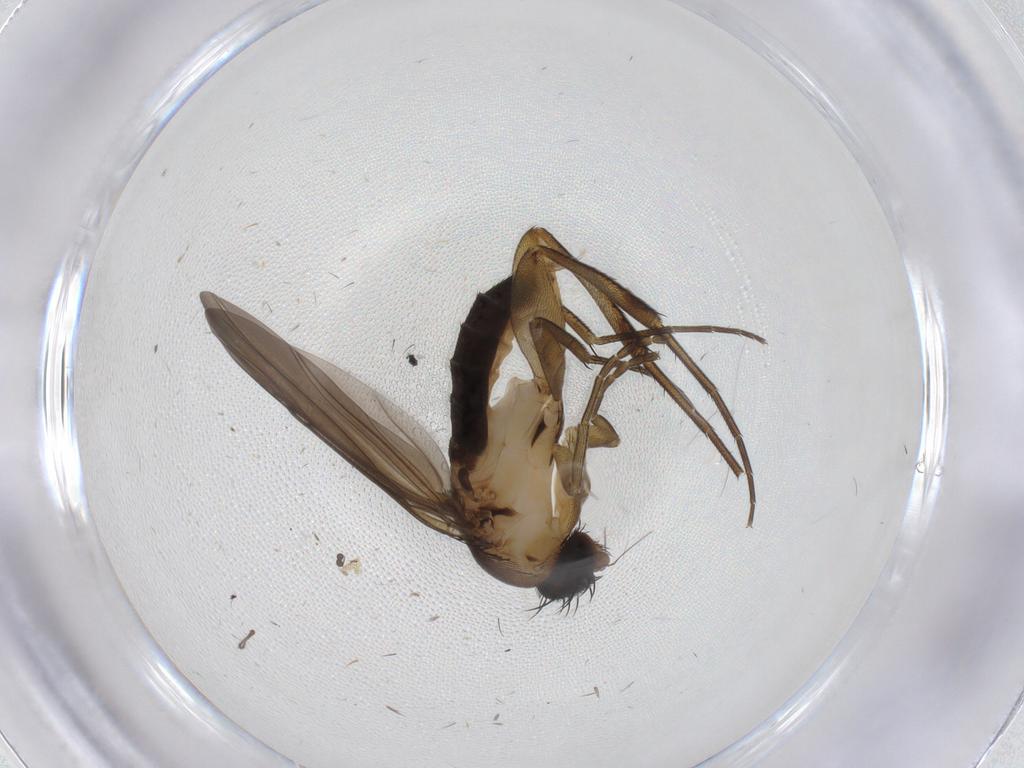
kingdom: Animalia
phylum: Arthropoda
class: Insecta
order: Diptera
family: Phoridae
